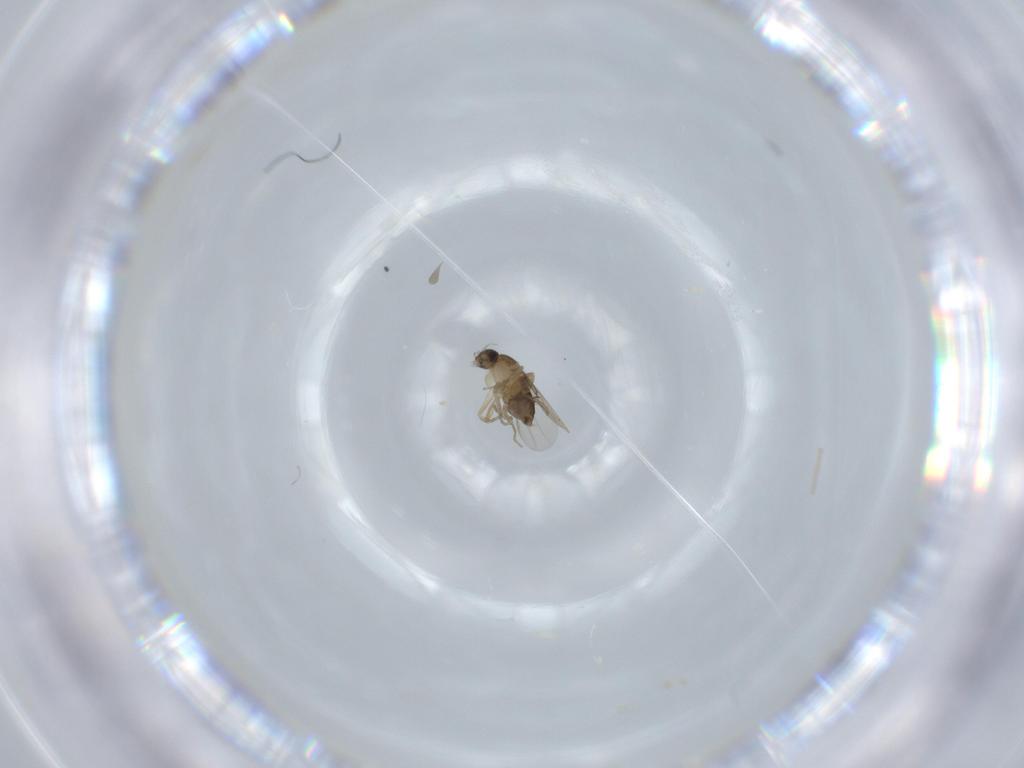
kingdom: Animalia
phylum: Arthropoda
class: Insecta
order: Diptera
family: Phoridae
